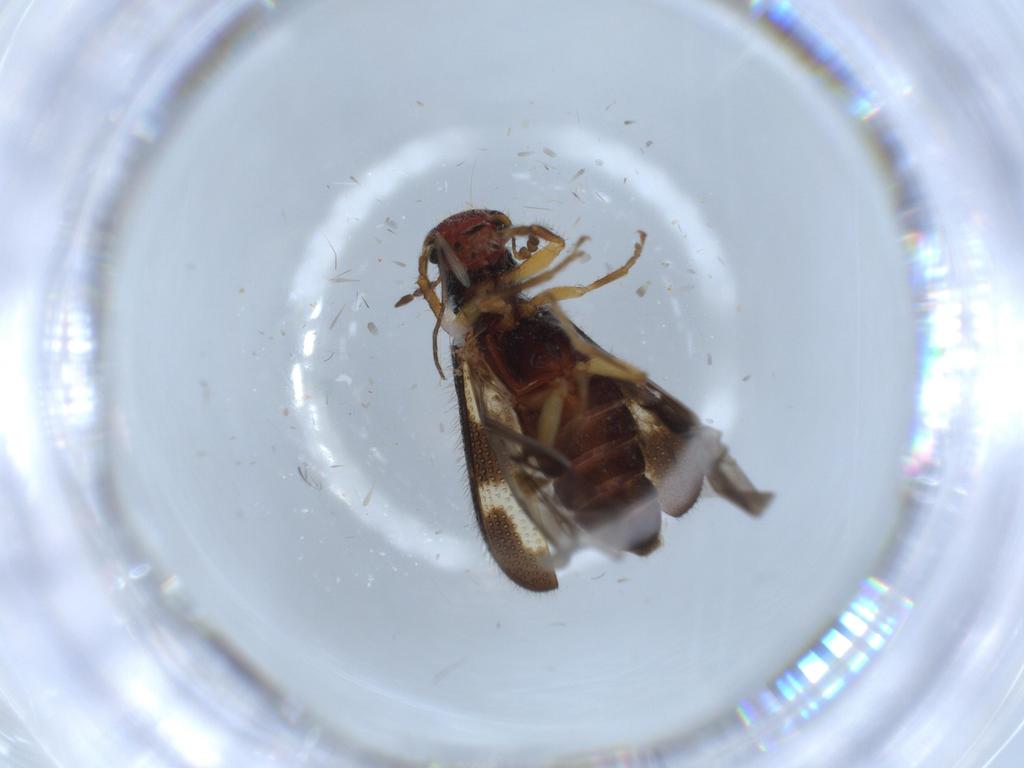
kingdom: Animalia
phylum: Arthropoda
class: Insecta
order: Coleoptera
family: Cleridae
